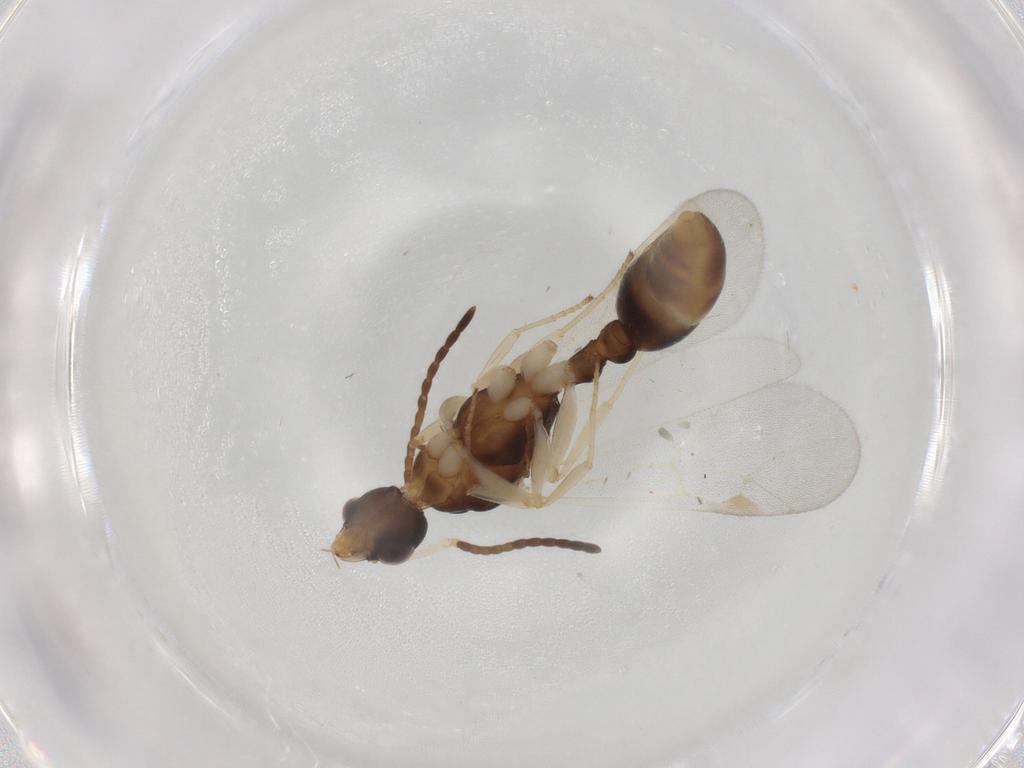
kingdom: Animalia
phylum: Arthropoda
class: Insecta
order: Hymenoptera
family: Formicidae
